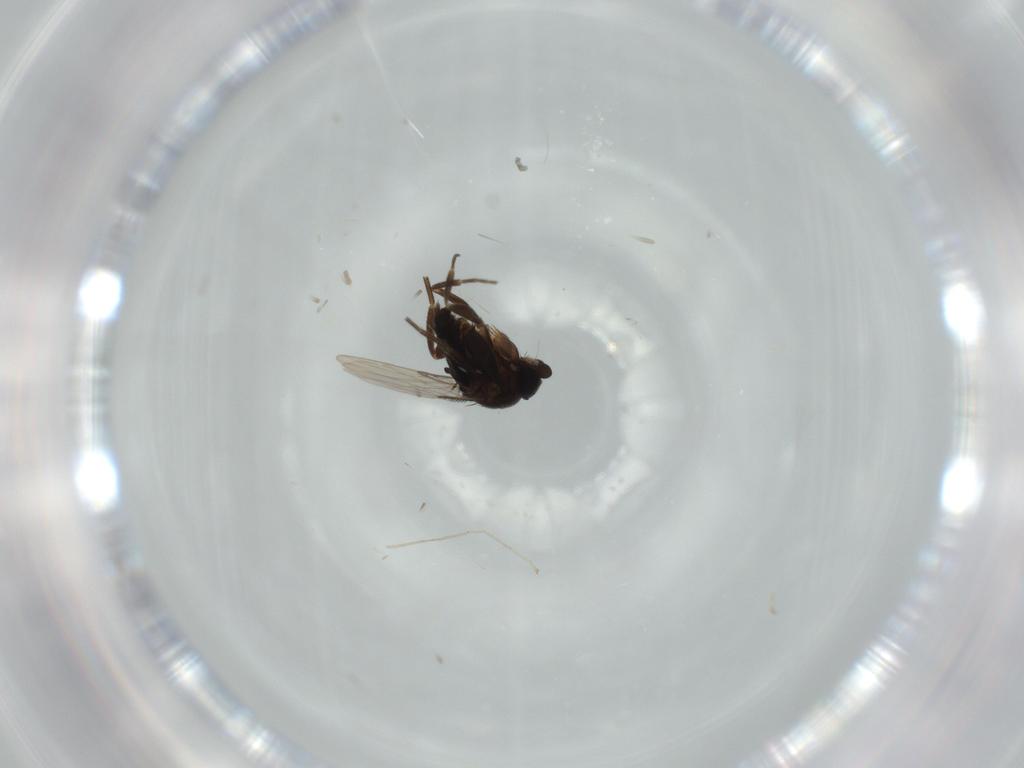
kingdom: Animalia
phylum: Arthropoda
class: Insecta
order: Diptera
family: Phoridae
